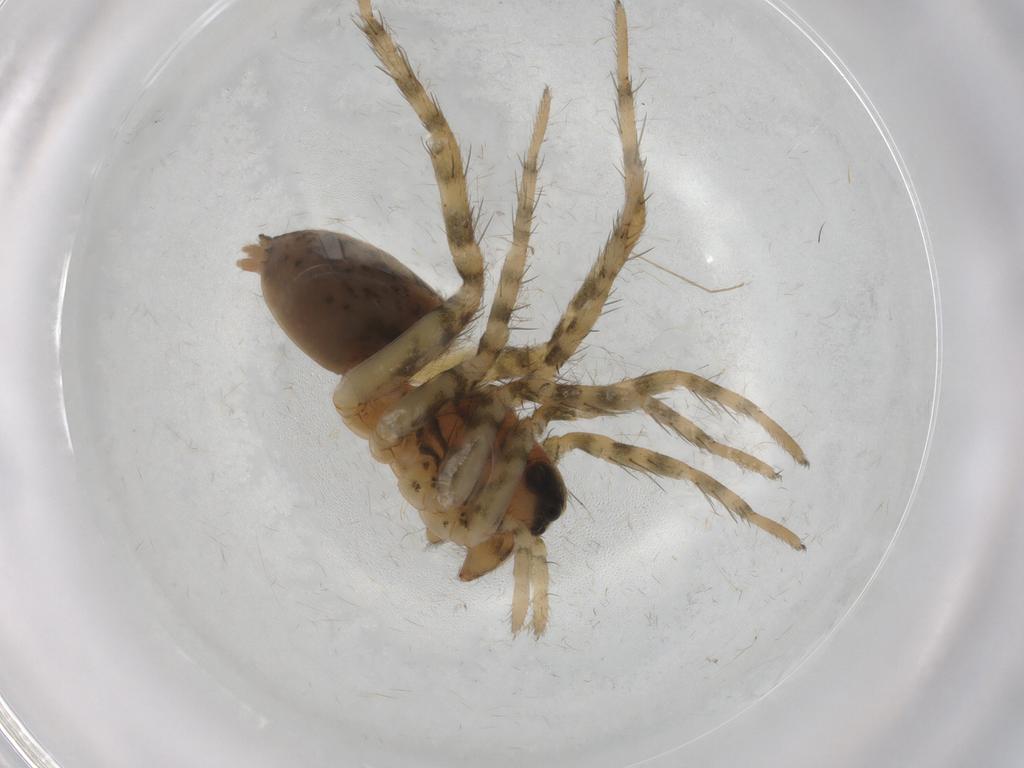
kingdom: Animalia
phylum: Arthropoda
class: Arachnida
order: Araneae
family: Lycosidae
